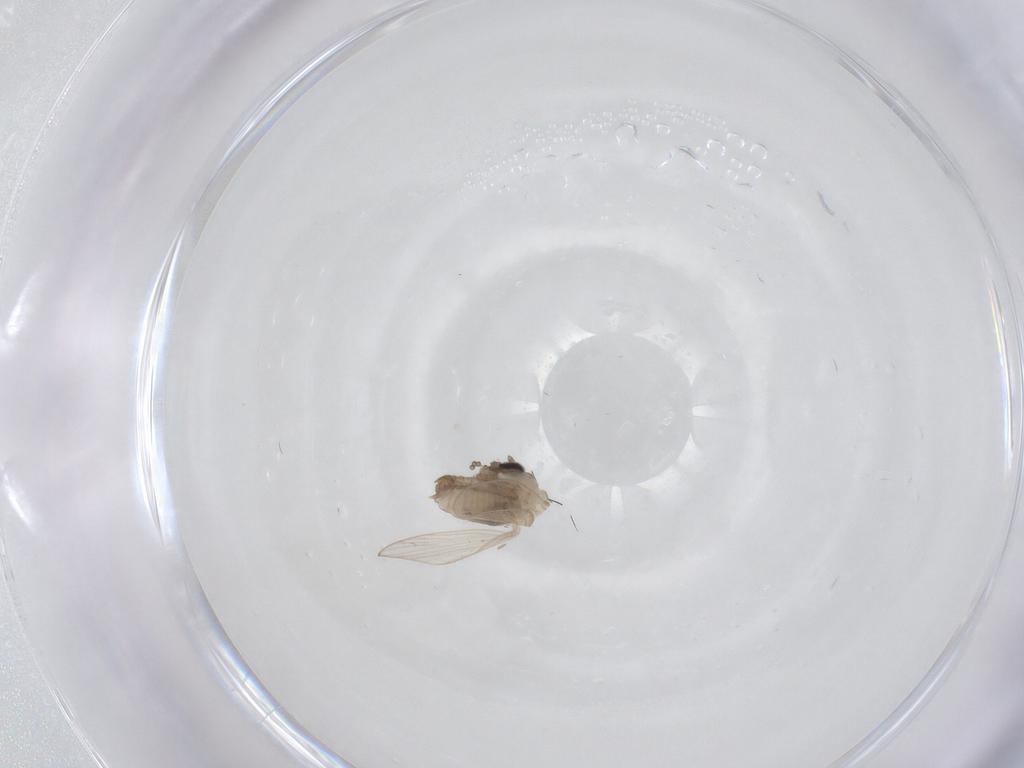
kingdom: Animalia
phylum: Arthropoda
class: Insecta
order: Diptera
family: Psychodidae
